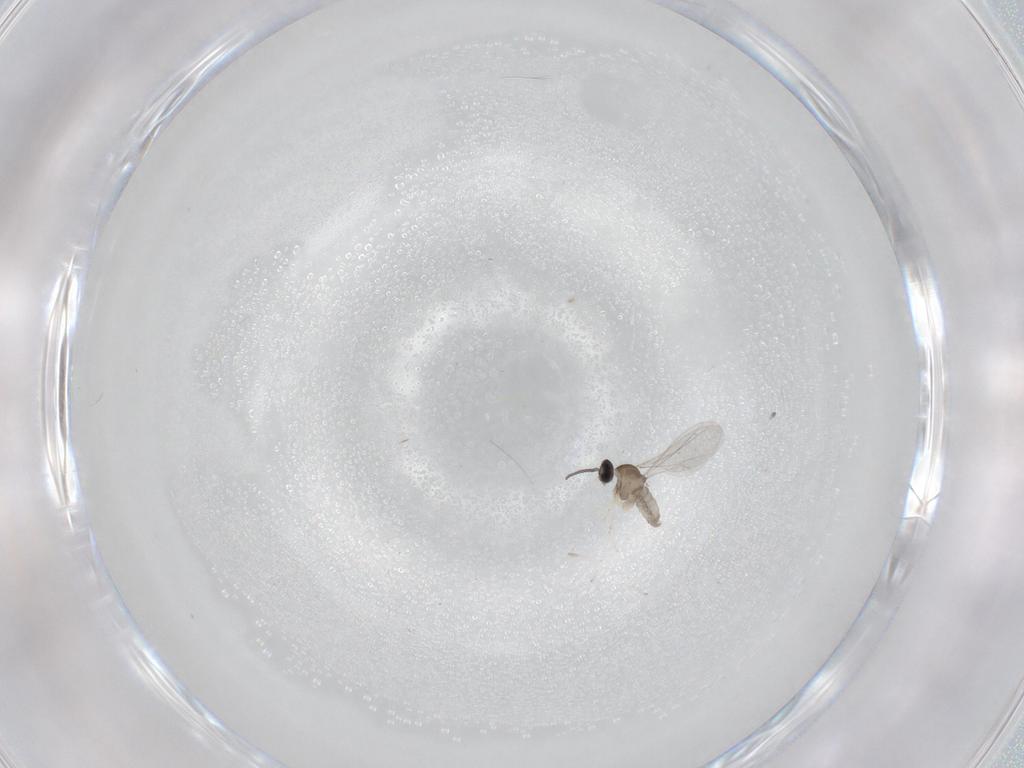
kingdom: Animalia
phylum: Arthropoda
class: Insecta
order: Diptera
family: Cecidomyiidae
